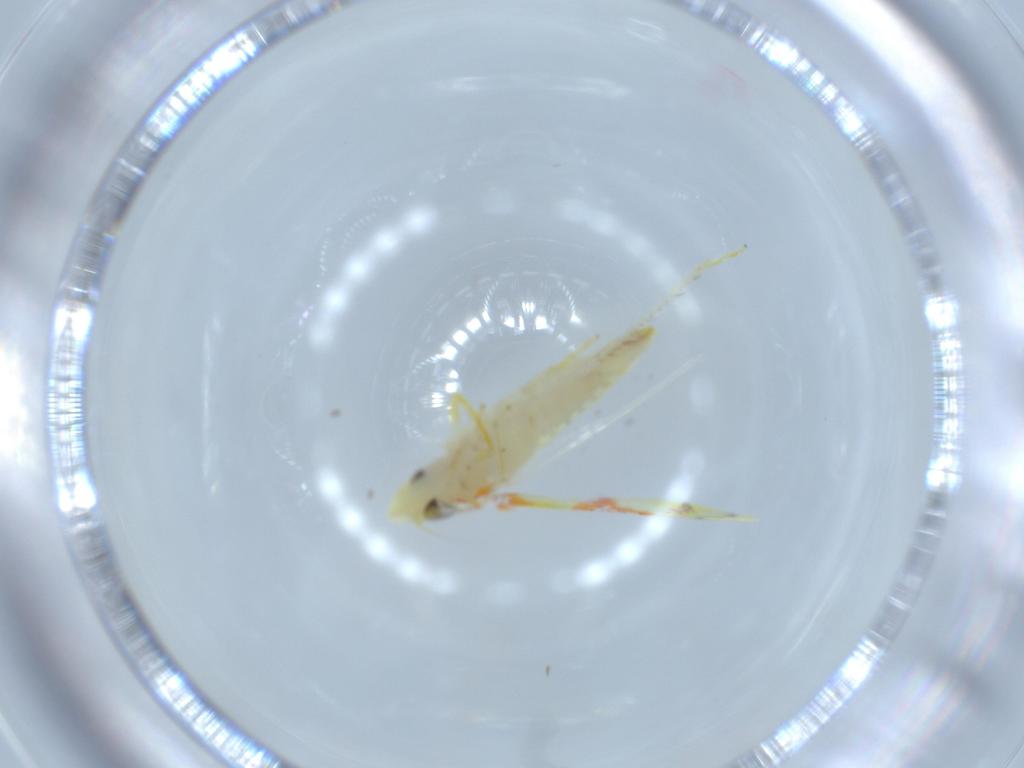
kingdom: Animalia
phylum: Arthropoda
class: Insecta
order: Hemiptera
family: Cicadellidae
